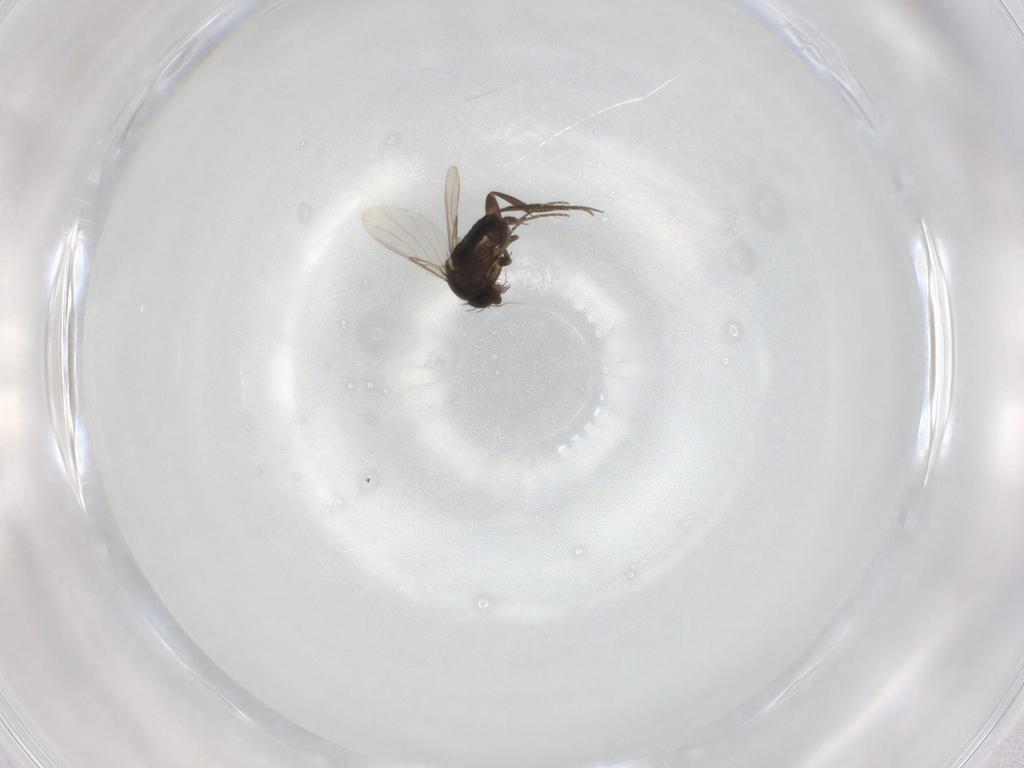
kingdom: Animalia
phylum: Arthropoda
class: Insecta
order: Diptera
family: Phoridae
